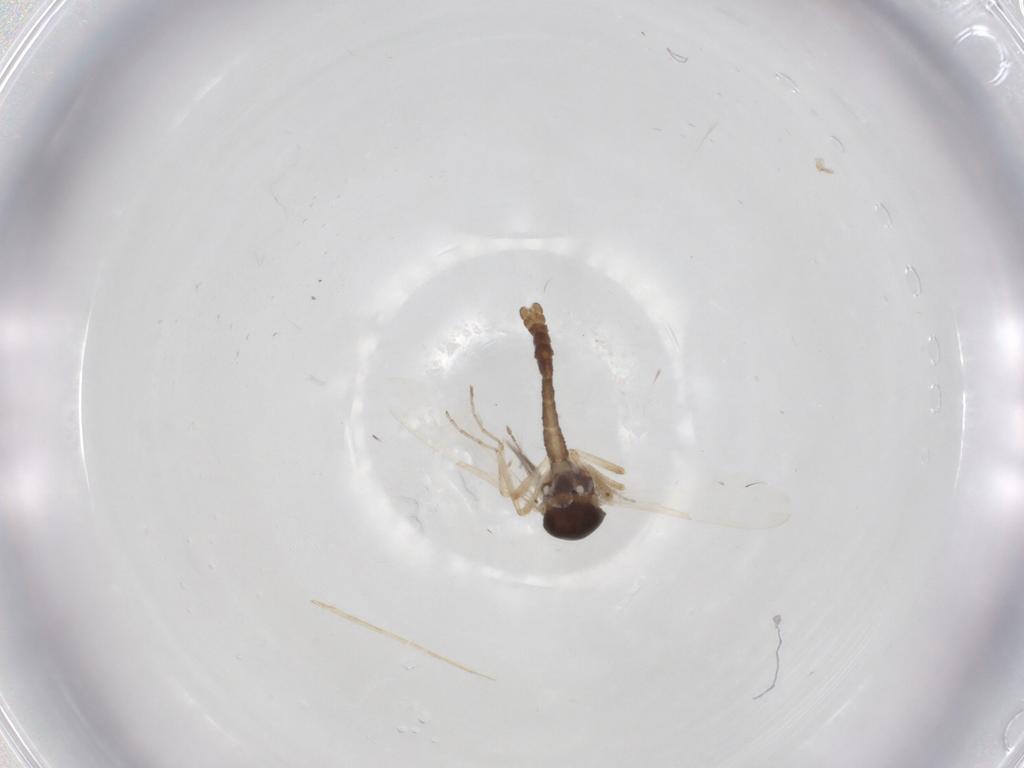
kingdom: Animalia
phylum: Arthropoda
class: Insecta
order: Diptera
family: Ceratopogonidae
